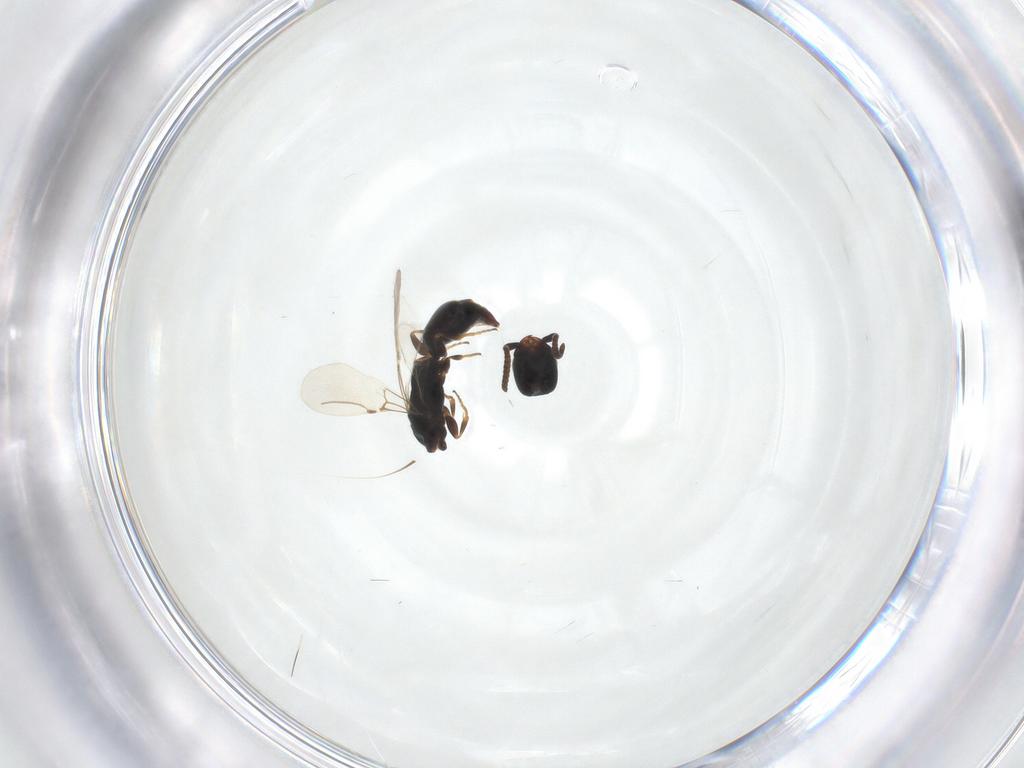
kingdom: Animalia
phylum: Arthropoda
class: Insecta
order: Hymenoptera
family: Bethylidae
